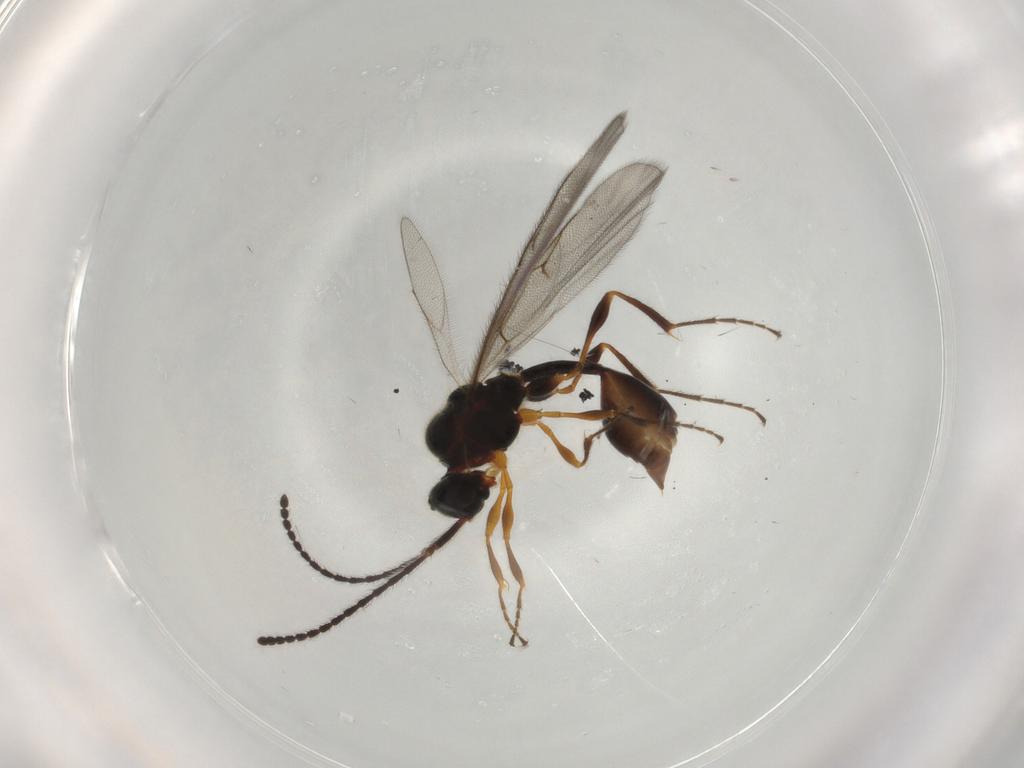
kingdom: Animalia
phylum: Arthropoda
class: Insecta
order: Hymenoptera
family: Diapriidae
